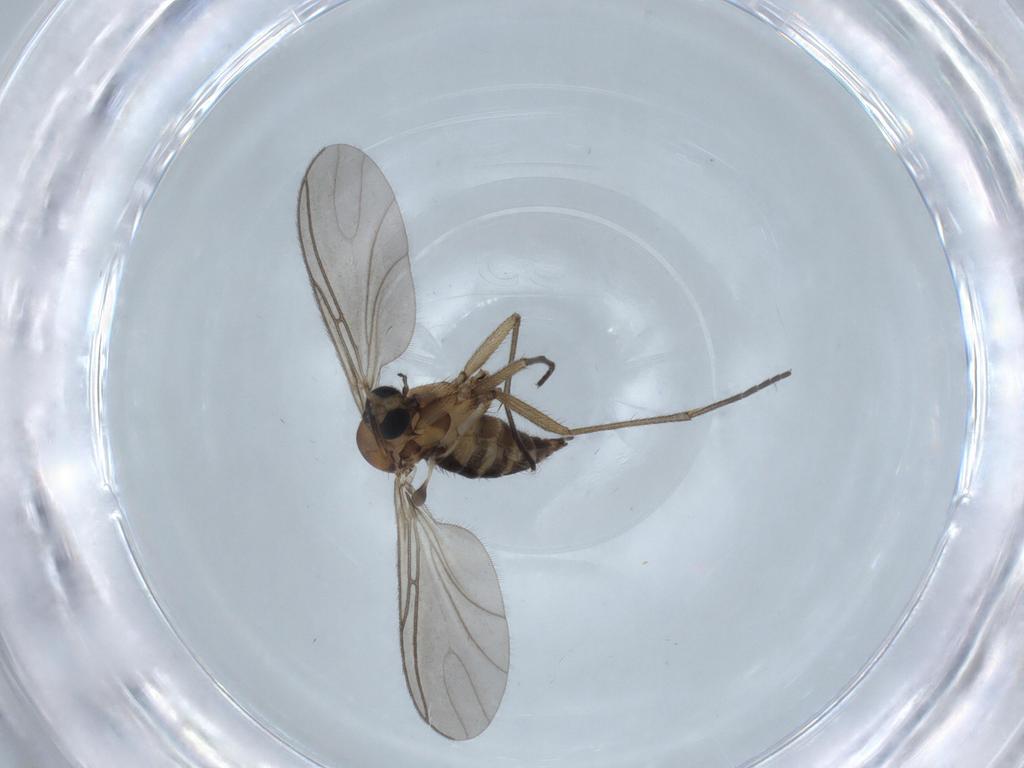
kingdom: Animalia
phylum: Arthropoda
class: Insecta
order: Diptera
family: Sciaridae
